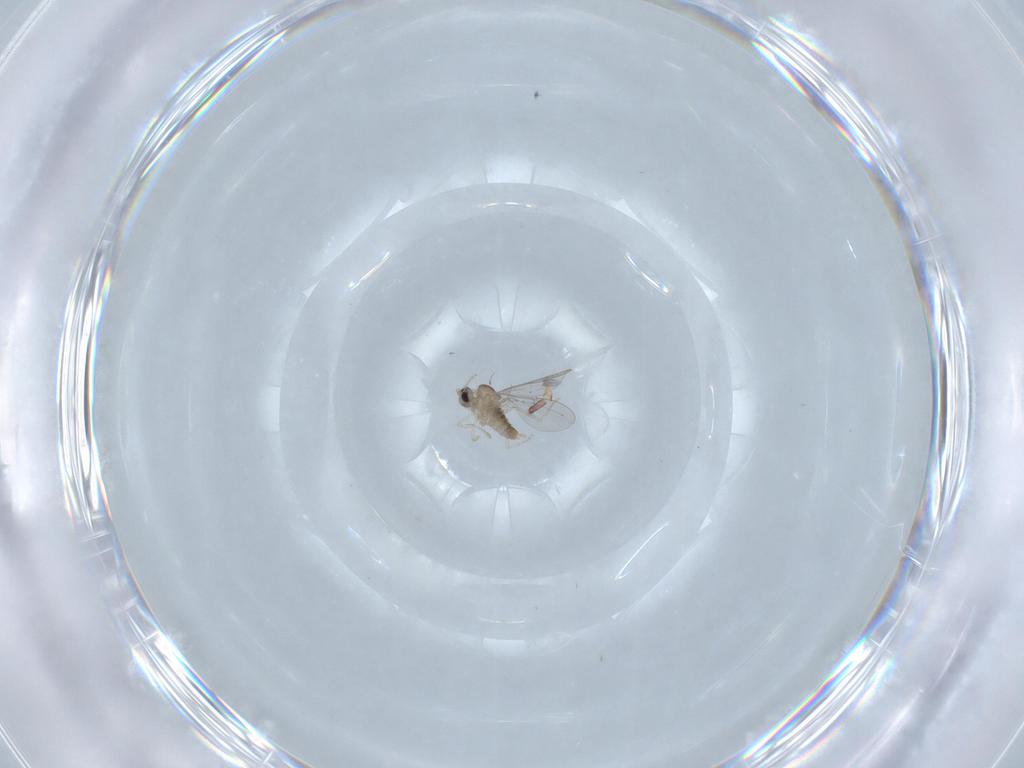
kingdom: Animalia
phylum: Arthropoda
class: Insecta
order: Diptera
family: Cecidomyiidae
